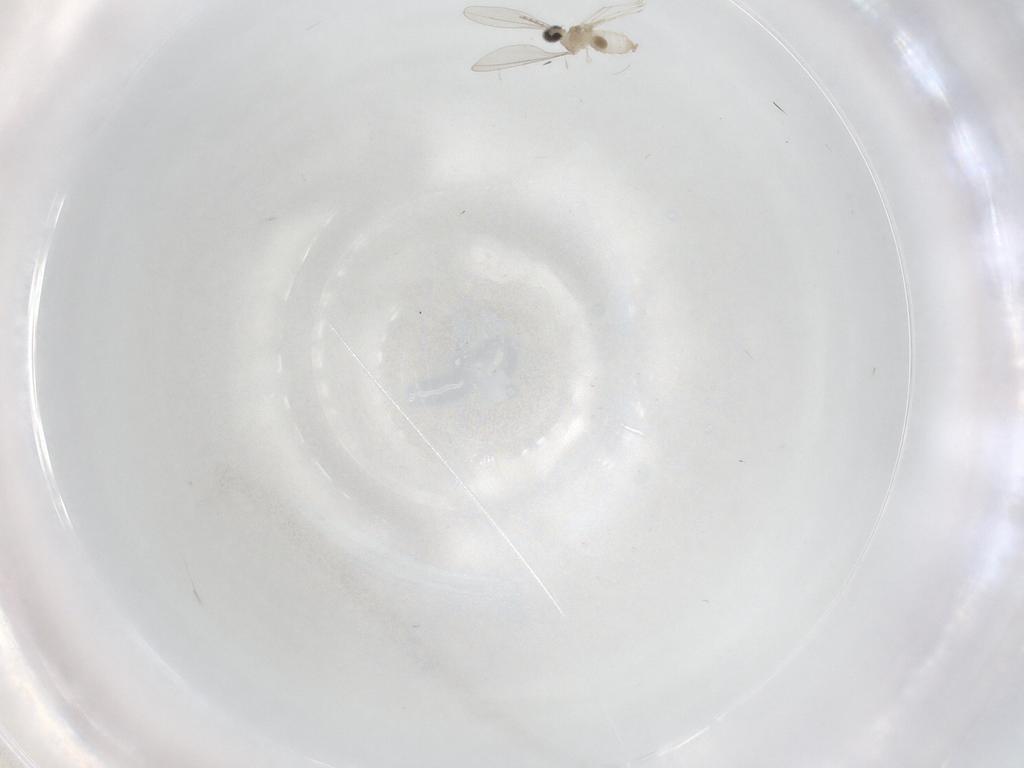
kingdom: Animalia
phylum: Arthropoda
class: Insecta
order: Diptera
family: Cecidomyiidae
